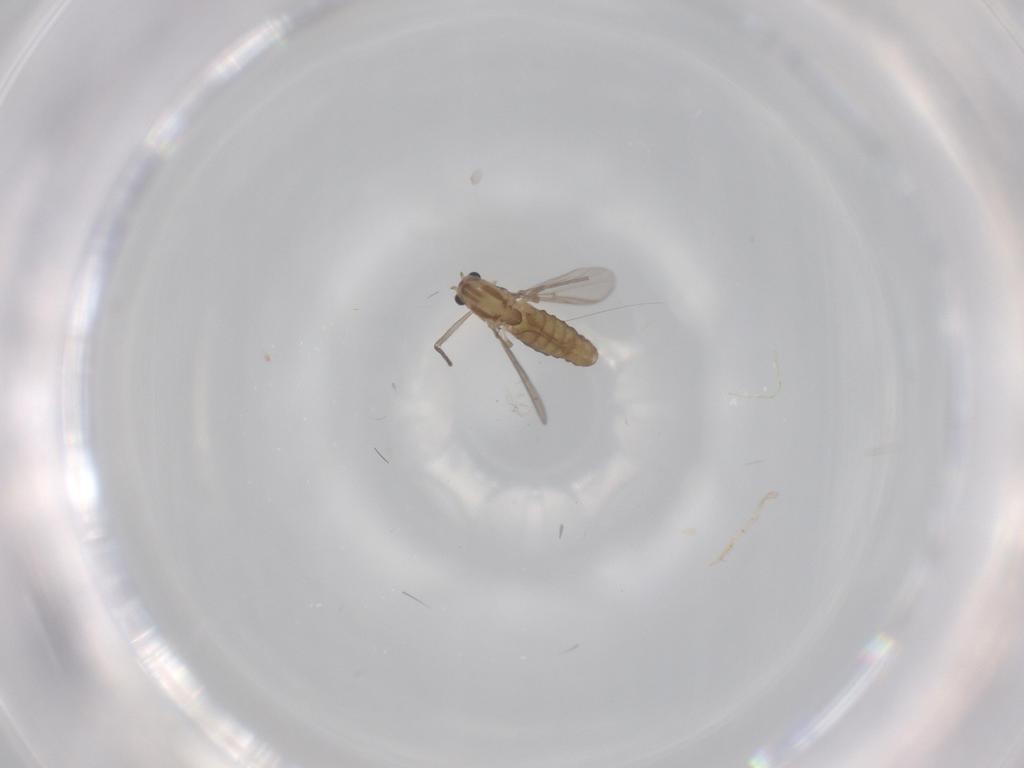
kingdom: Animalia
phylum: Arthropoda
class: Insecta
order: Diptera
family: Chironomidae
